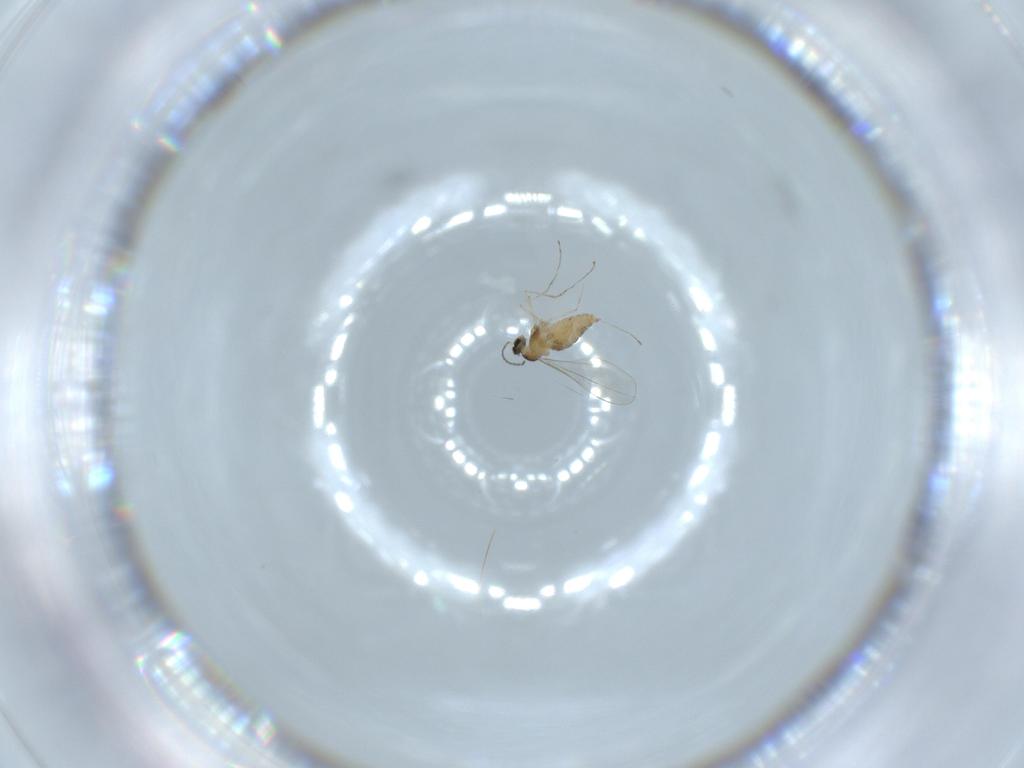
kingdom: Animalia
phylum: Arthropoda
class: Insecta
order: Diptera
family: Cecidomyiidae
